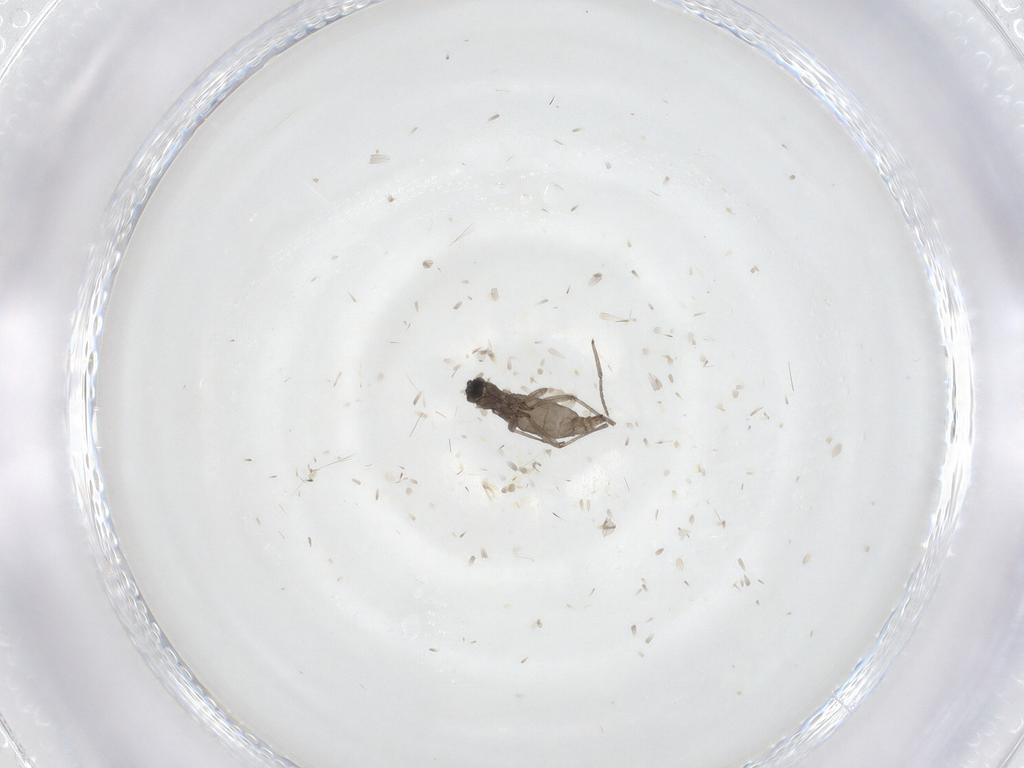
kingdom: Animalia
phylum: Arthropoda
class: Insecta
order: Diptera
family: Sciaridae
